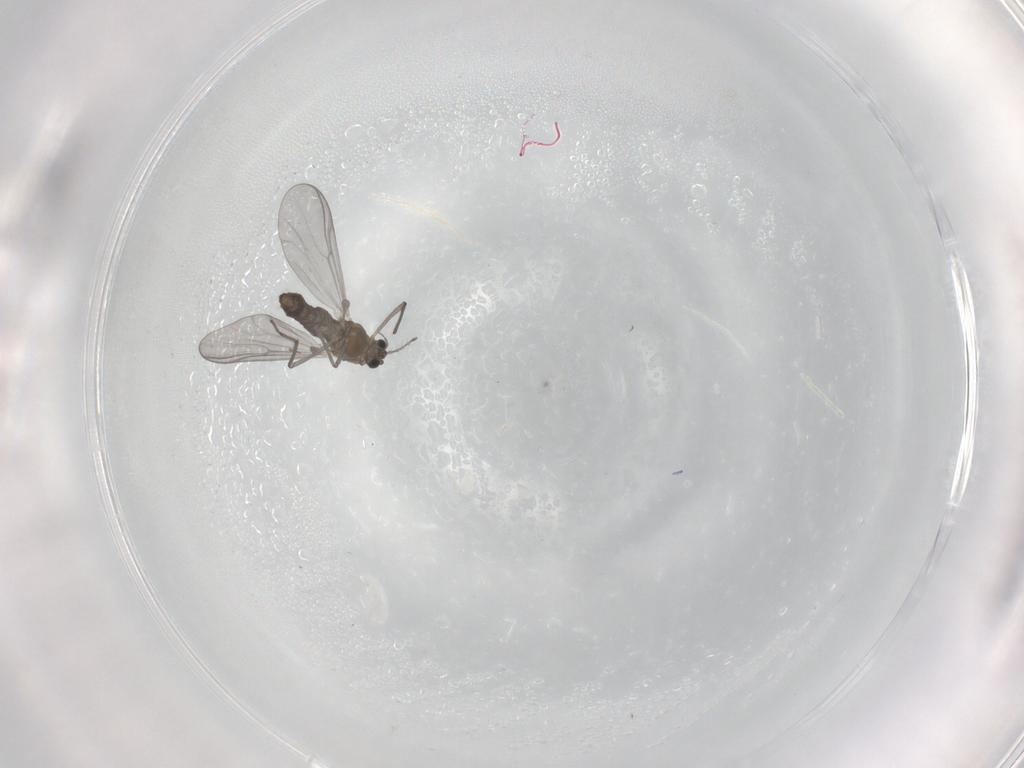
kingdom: Animalia
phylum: Arthropoda
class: Insecta
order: Diptera
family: Chironomidae
